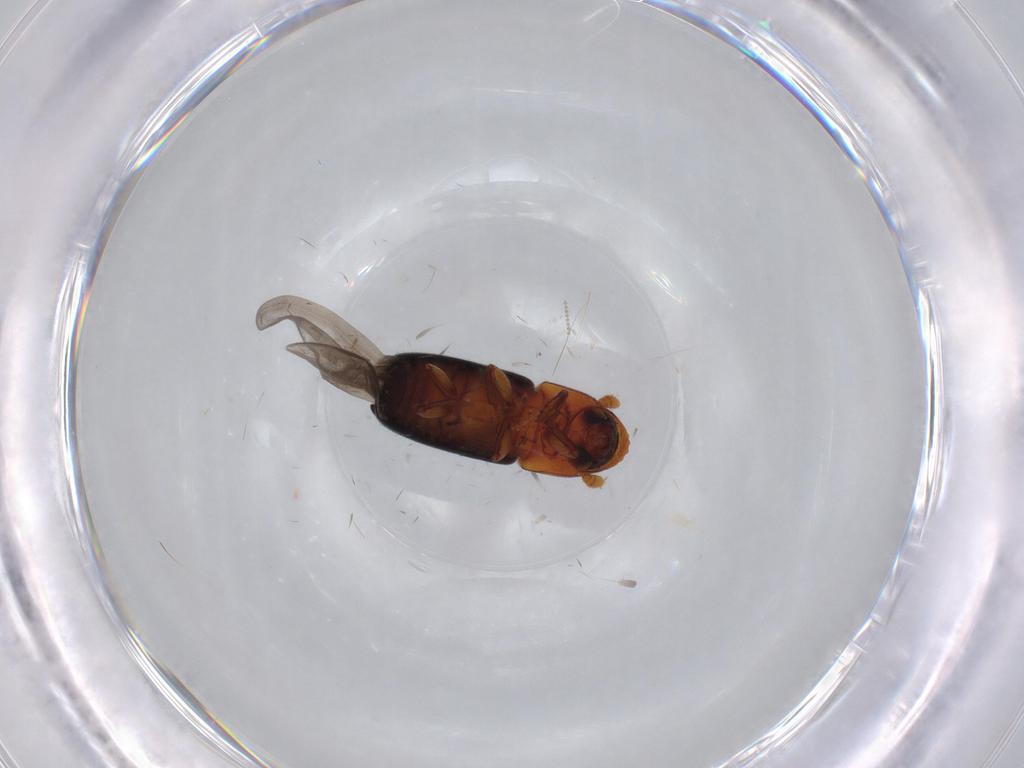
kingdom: Animalia
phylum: Arthropoda
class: Insecta
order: Coleoptera
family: Curculionidae
